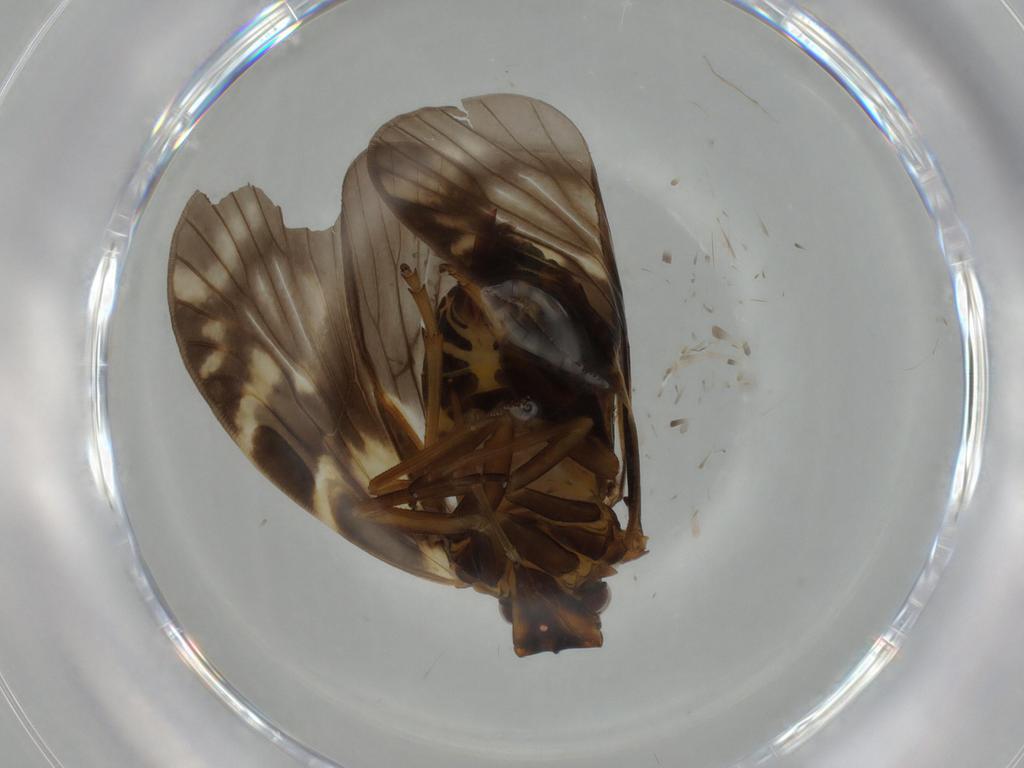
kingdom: Animalia
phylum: Arthropoda
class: Insecta
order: Hemiptera
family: Cixiidae
